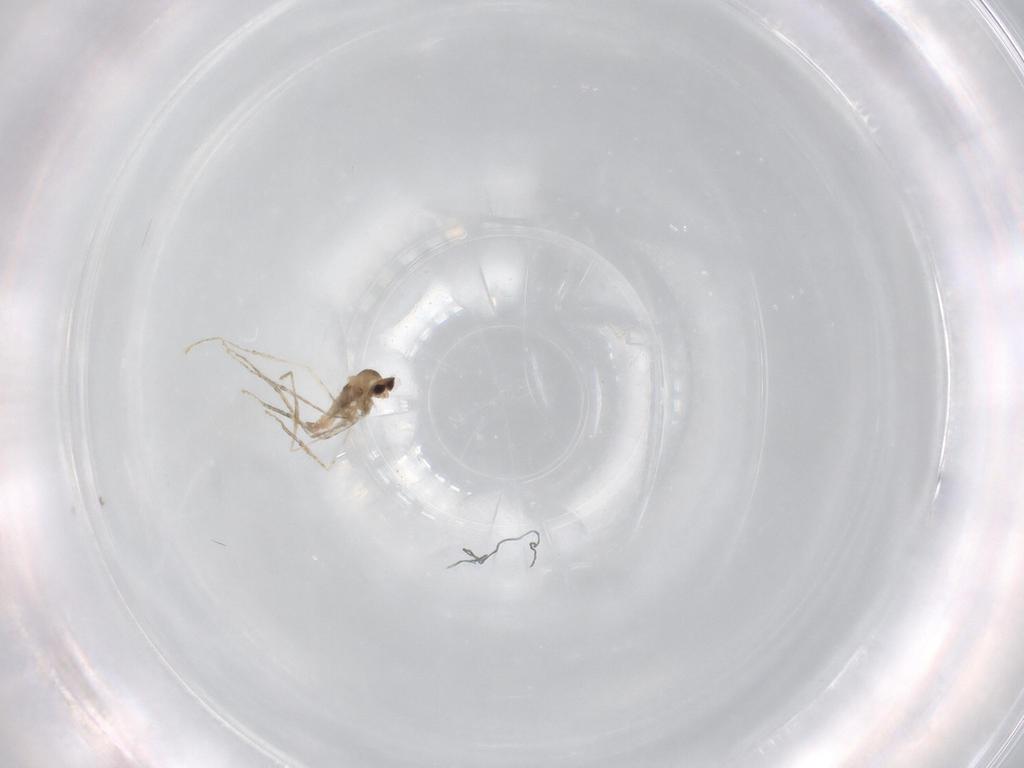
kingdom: Animalia
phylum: Arthropoda
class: Insecta
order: Diptera
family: Cecidomyiidae
